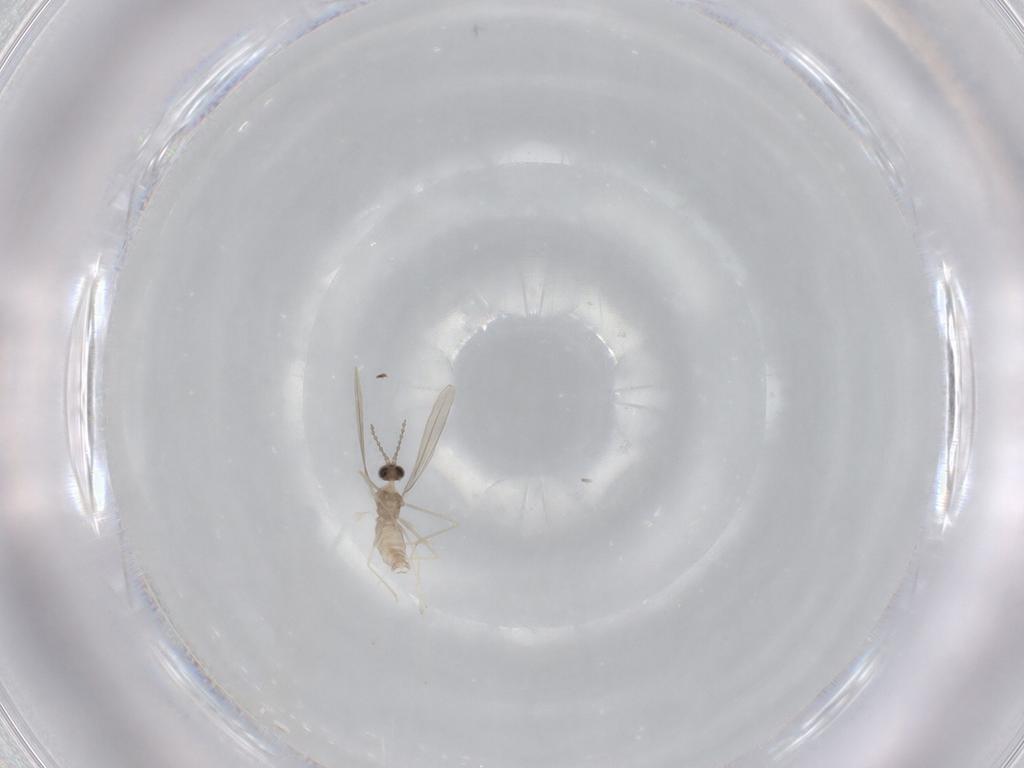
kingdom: Animalia
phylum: Arthropoda
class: Insecta
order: Diptera
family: Cecidomyiidae
